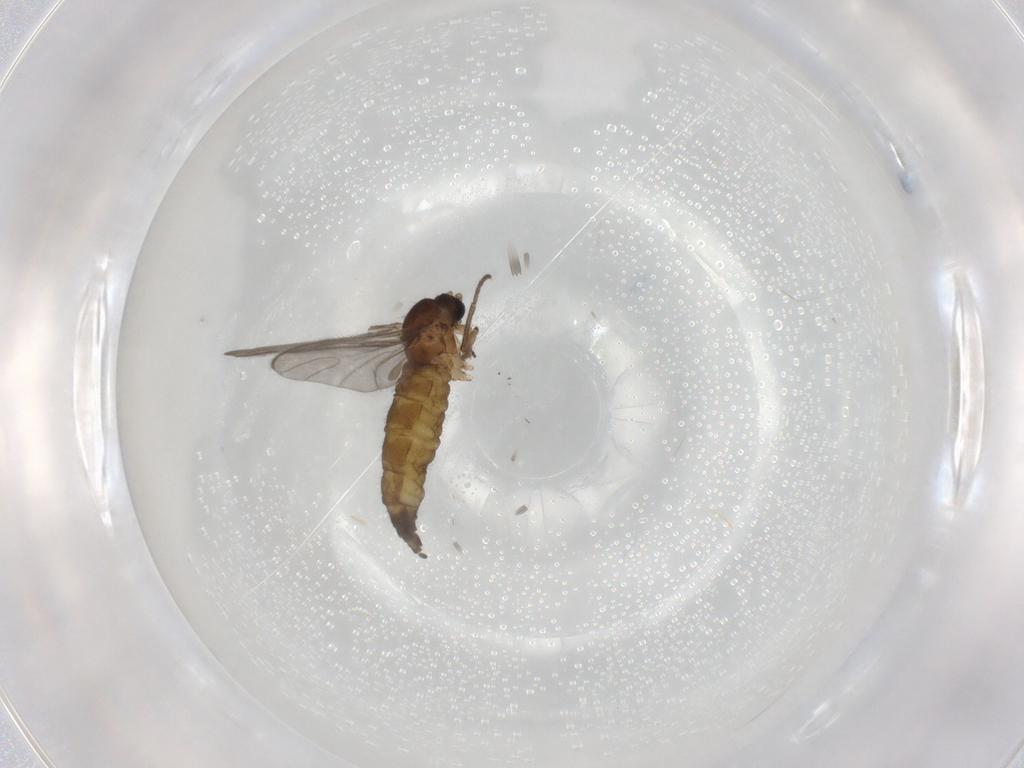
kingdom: Animalia
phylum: Arthropoda
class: Insecta
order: Diptera
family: Sciaridae
